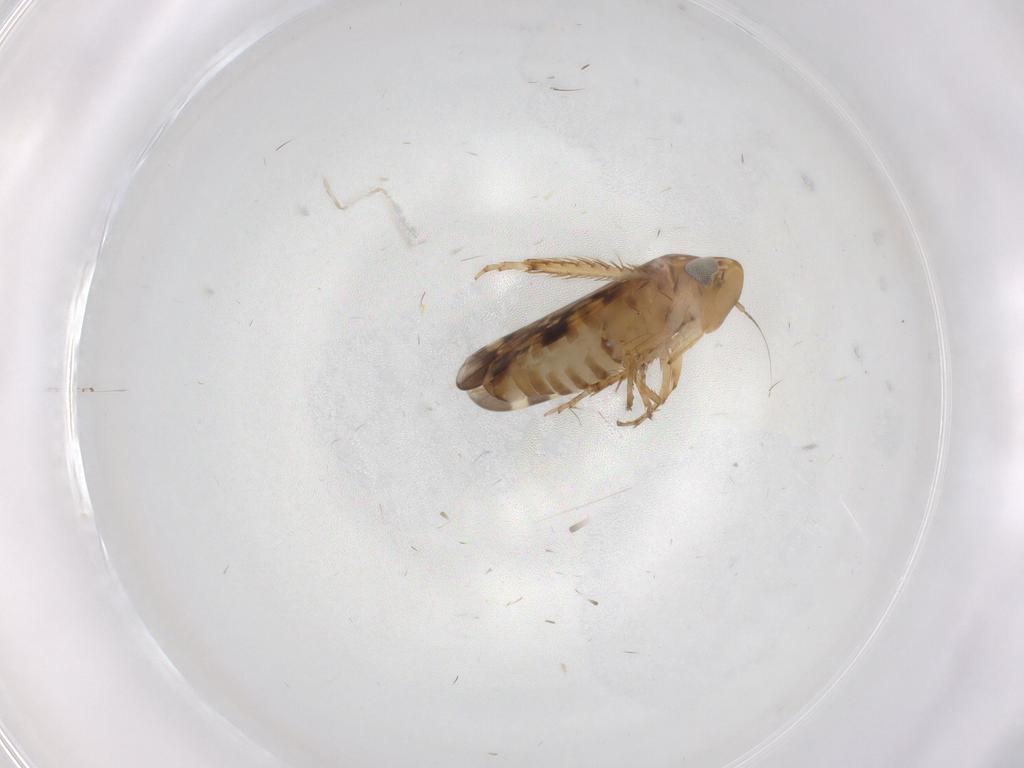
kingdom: Animalia
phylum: Arthropoda
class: Insecta
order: Hemiptera
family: Cicadellidae
